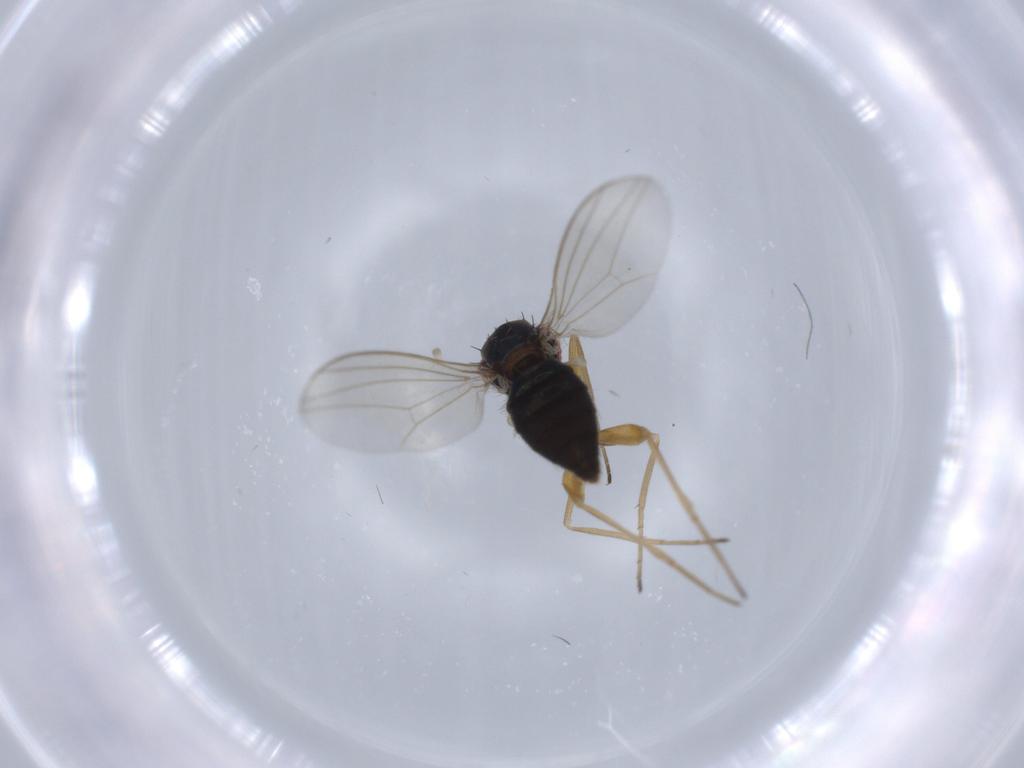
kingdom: Animalia
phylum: Arthropoda
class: Insecta
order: Diptera
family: Dolichopodidae
